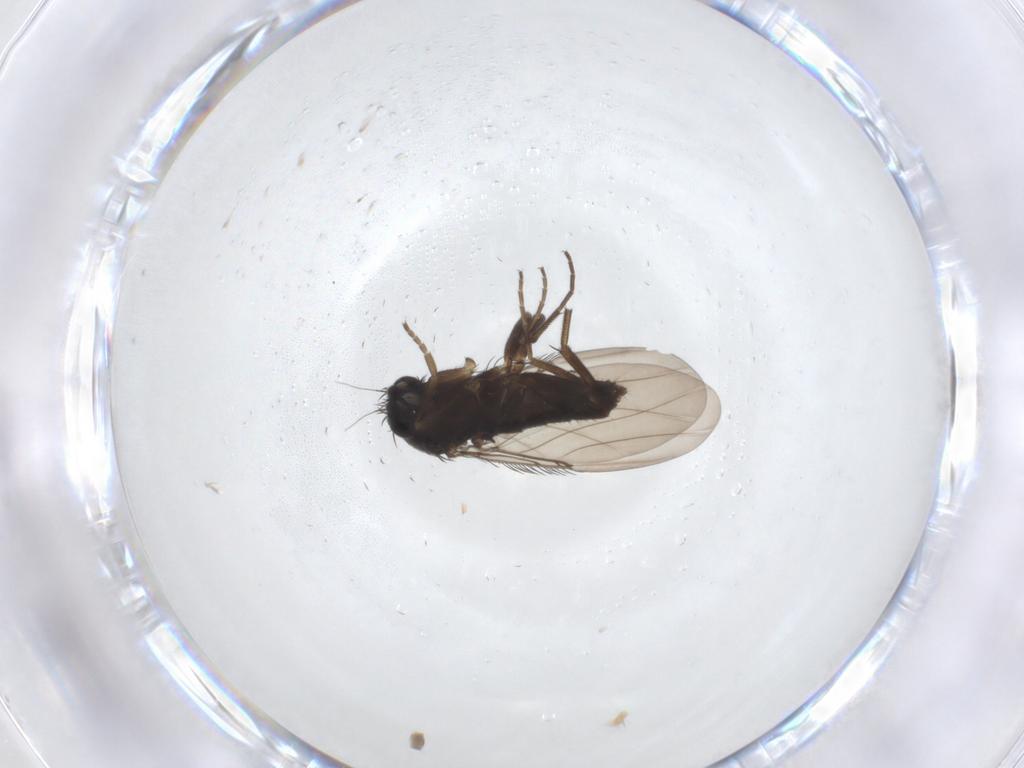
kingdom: Animalia
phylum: Arthropoda
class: Insecta
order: Diptera
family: Phoridae
